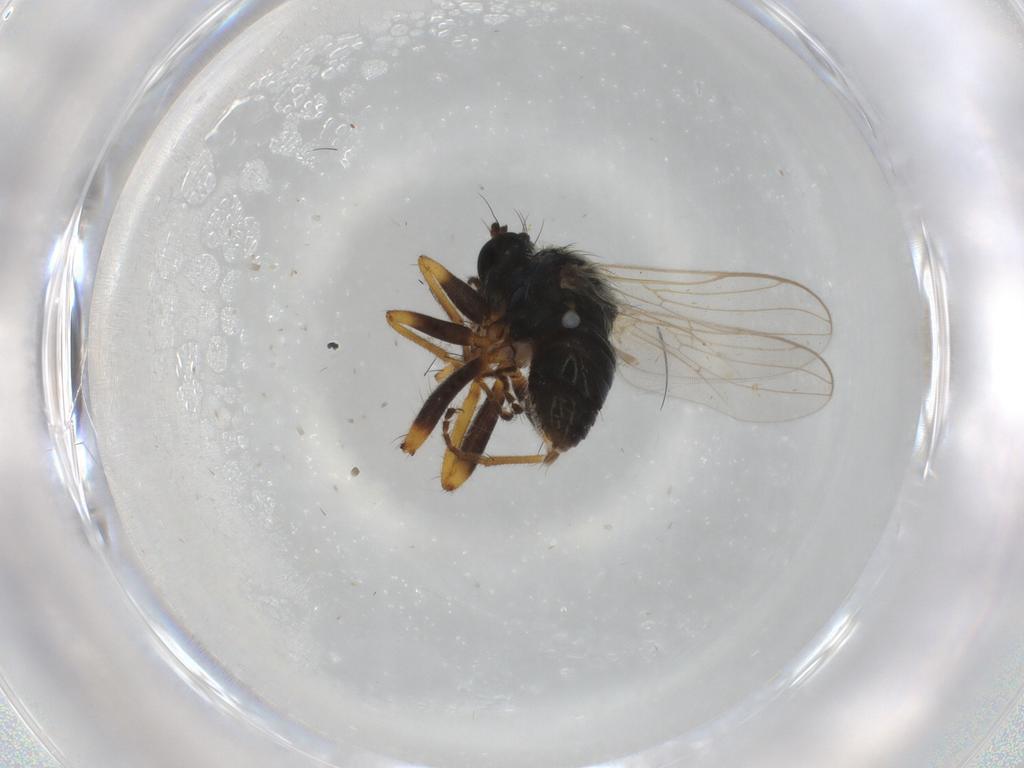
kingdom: Animalia
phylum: Arthropoda
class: Insecta
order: Diptera
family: Hybotidae
